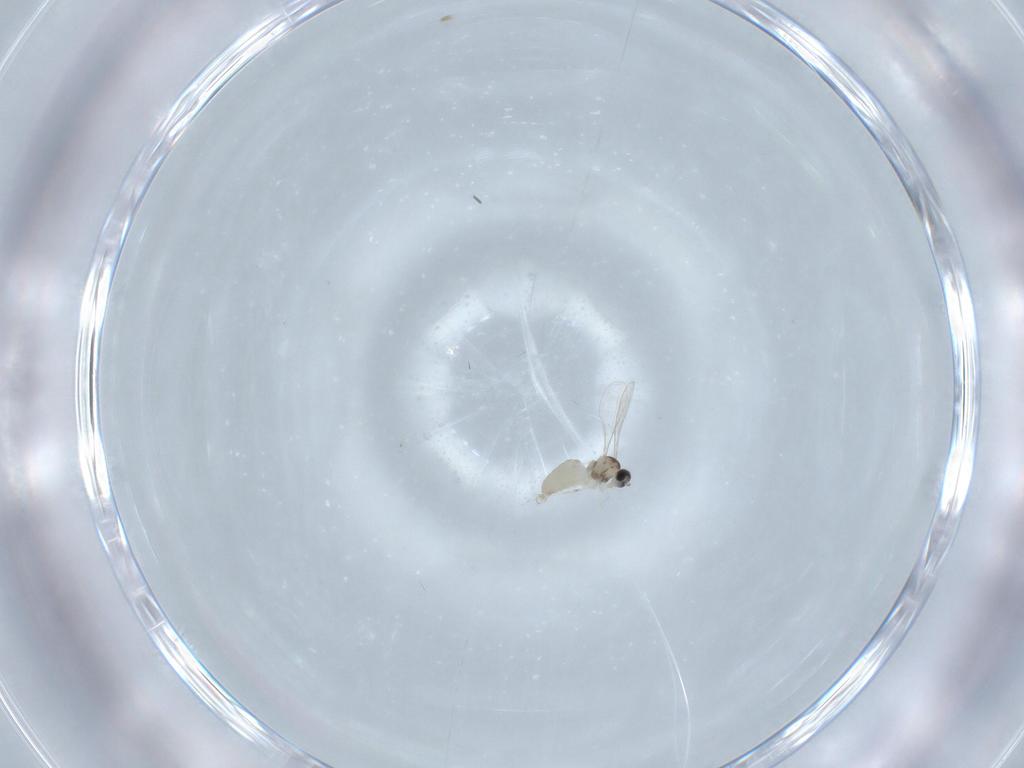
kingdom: Animalia
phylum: Arthropoda
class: Insecta
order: Diptera
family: Cecidomyiidae
